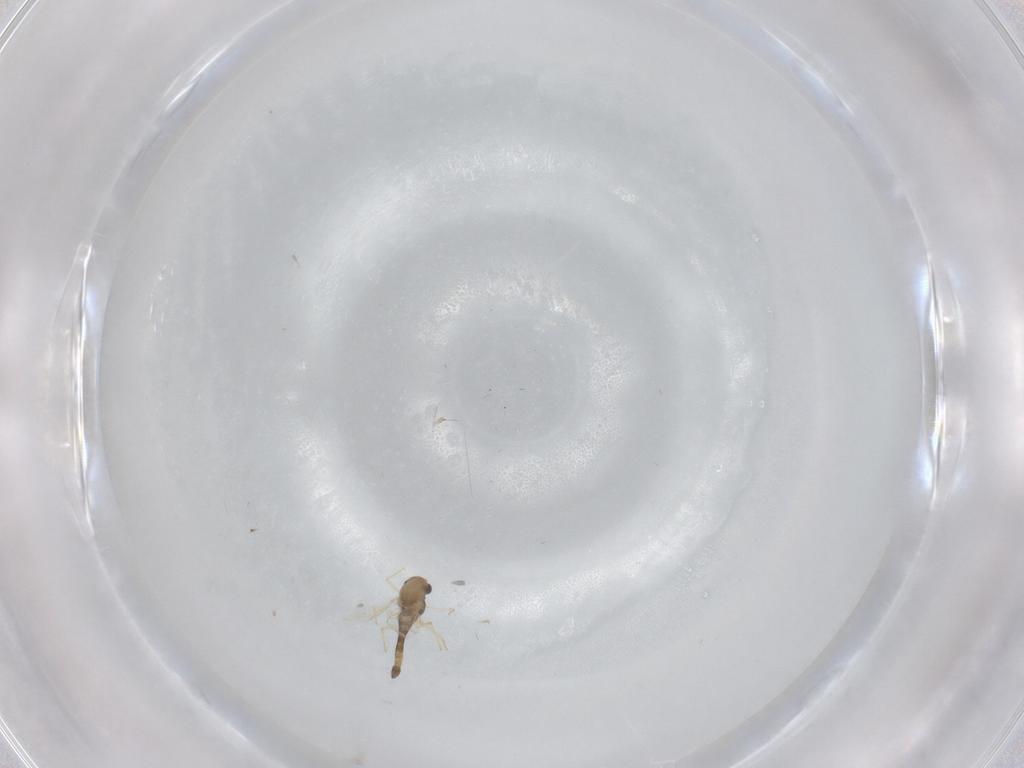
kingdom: Animalia
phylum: Arthropoda
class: Insecta
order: Diptera
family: Chironomidae
